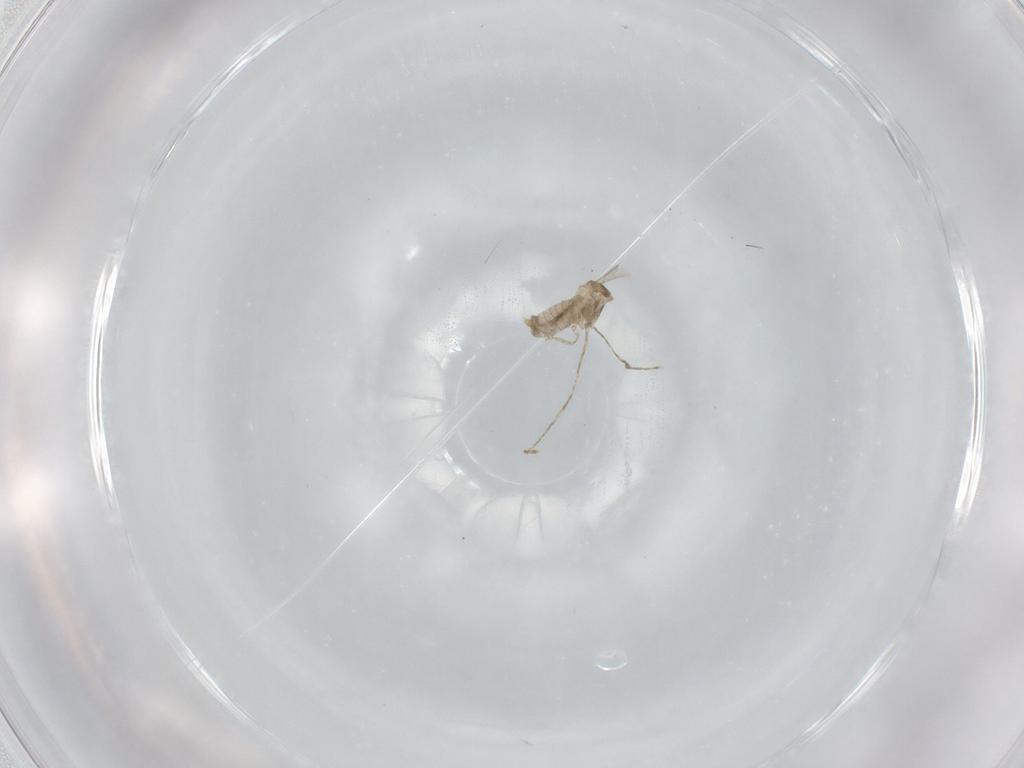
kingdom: Animalia
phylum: Arthropoda
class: Insecta
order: Diptera
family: Cecidomyiidae
